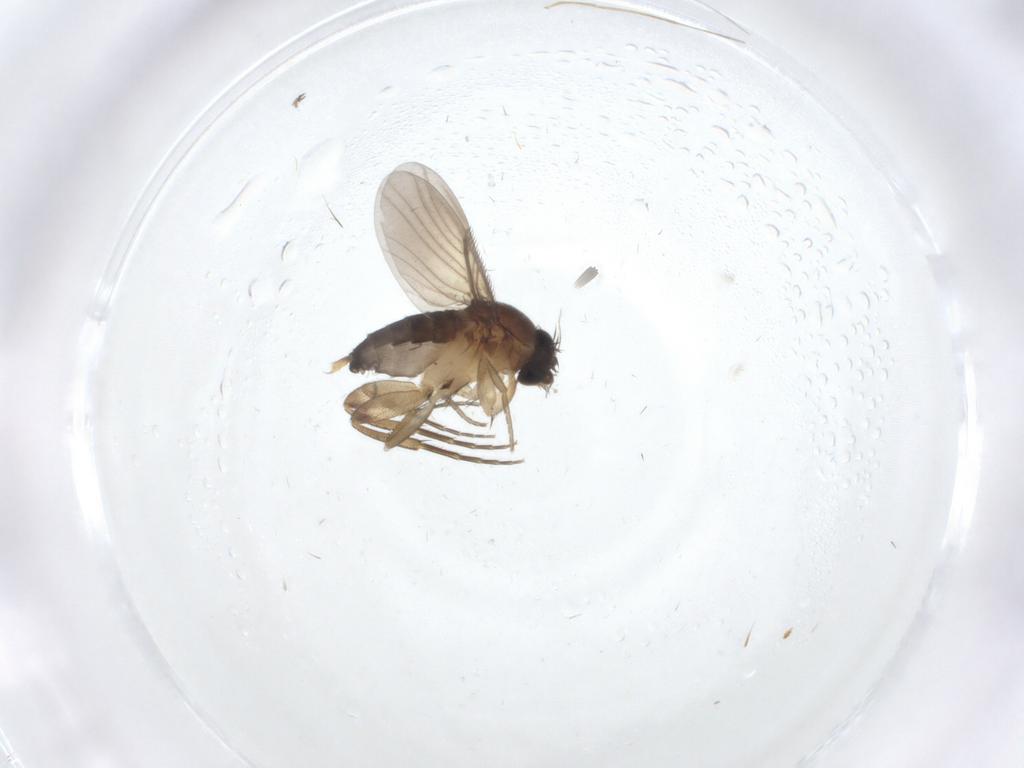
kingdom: Animalia
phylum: Arthropoda
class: Insecta
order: Diptera
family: Phoridae
